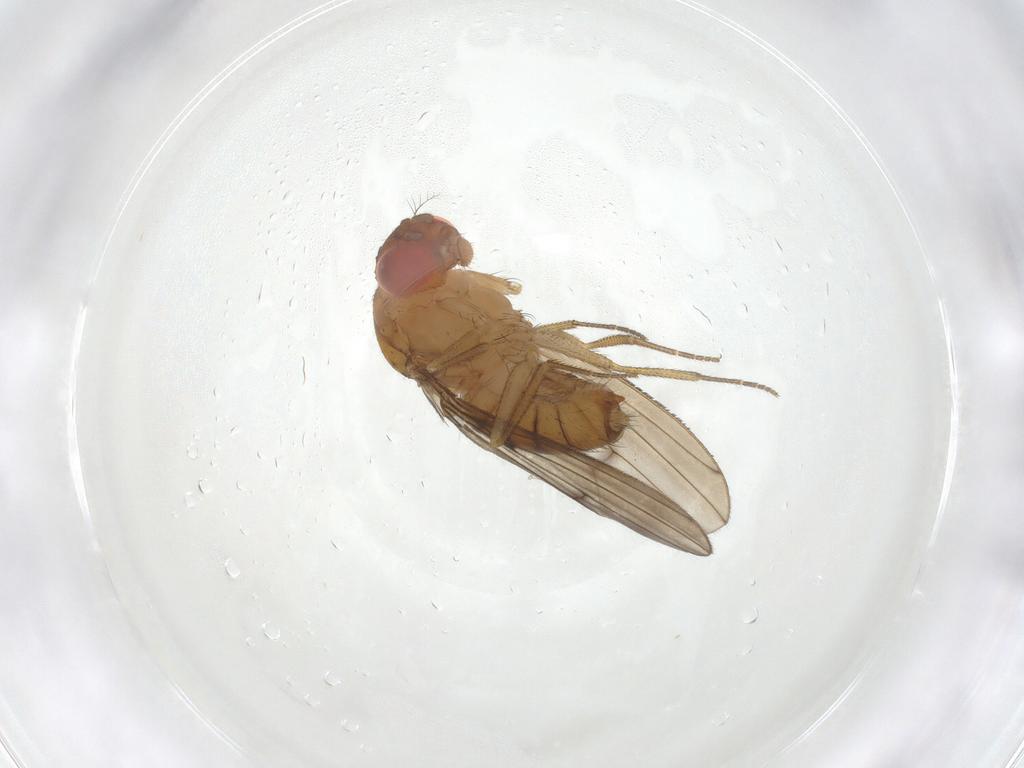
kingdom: Animalia
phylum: Arthropoda
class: Insecta
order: Diptera
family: Drosophilidae
